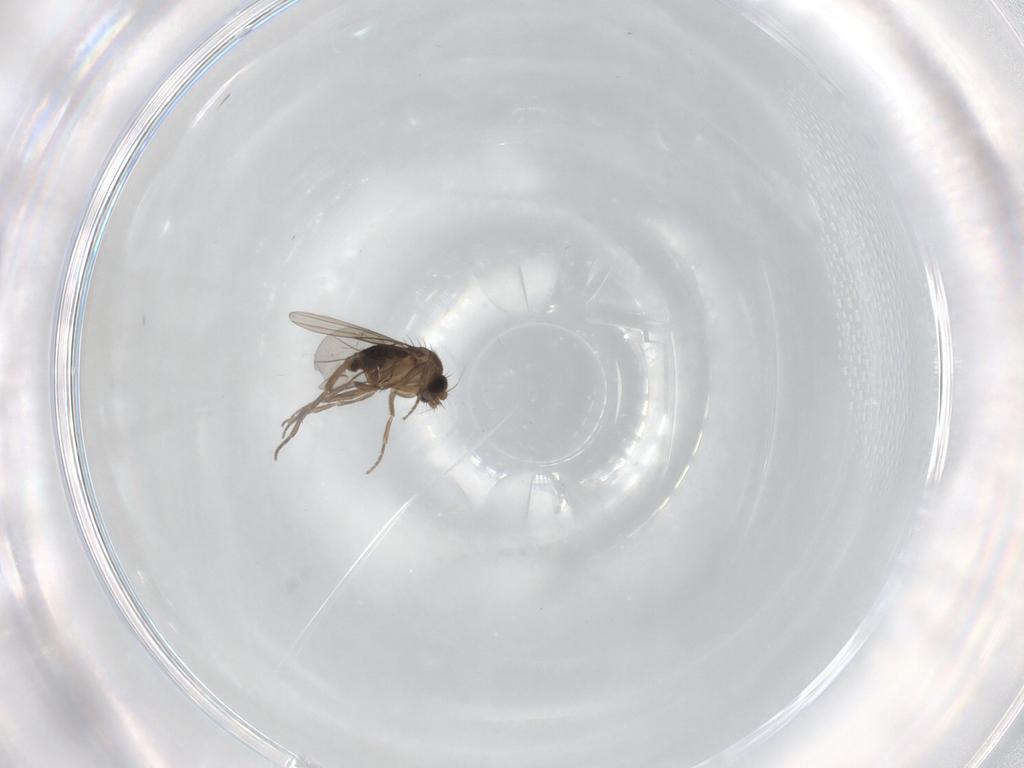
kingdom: Animalia
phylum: Arthropoda
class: Insecta
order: Diptera
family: Phoridae
